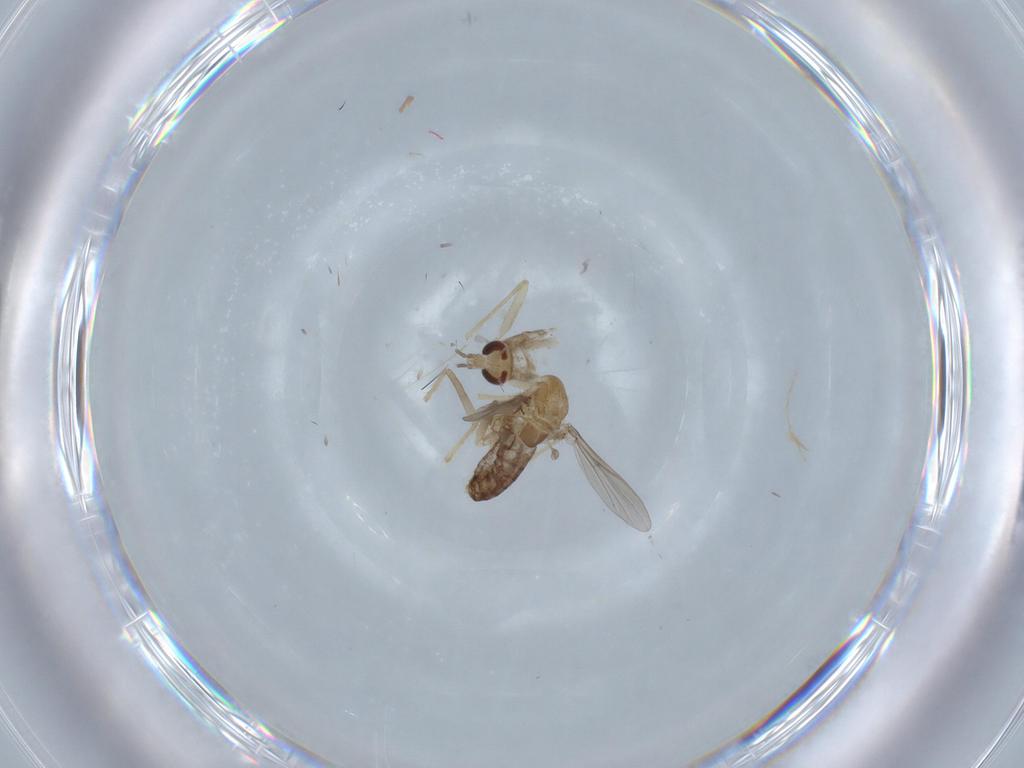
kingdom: Animalia
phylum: Arthropoda
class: Insecta
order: Diptera
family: Chironomidae
